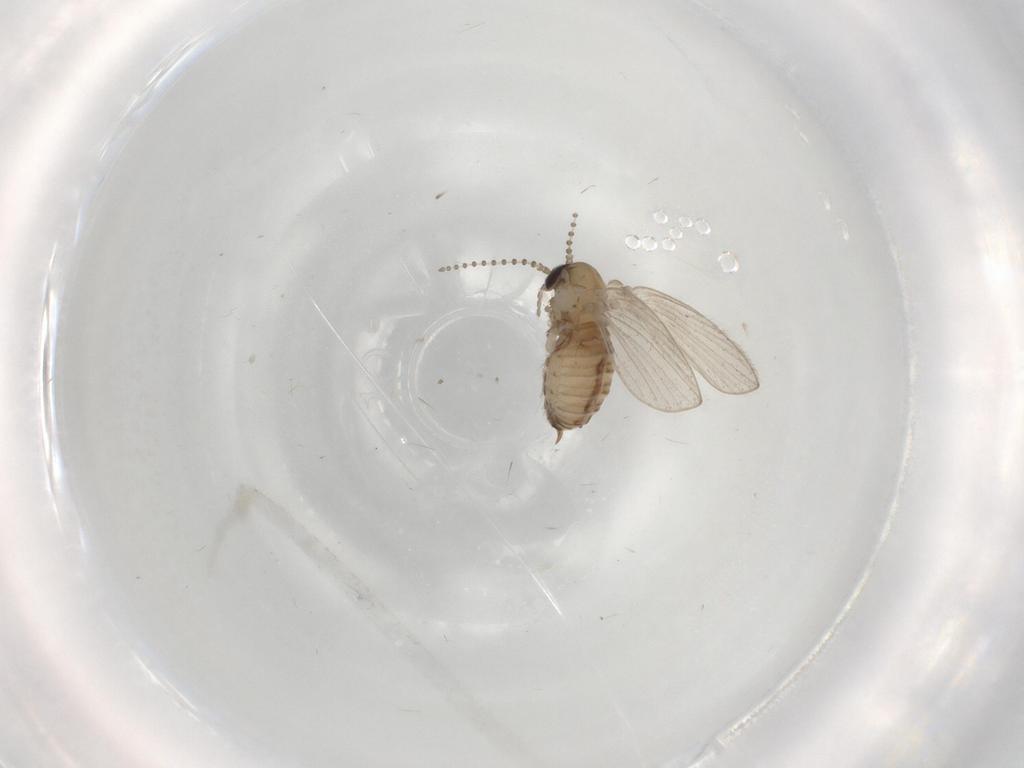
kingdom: Animalia
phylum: Arthropoda
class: Insecta
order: Diptera
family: Psychodidae
